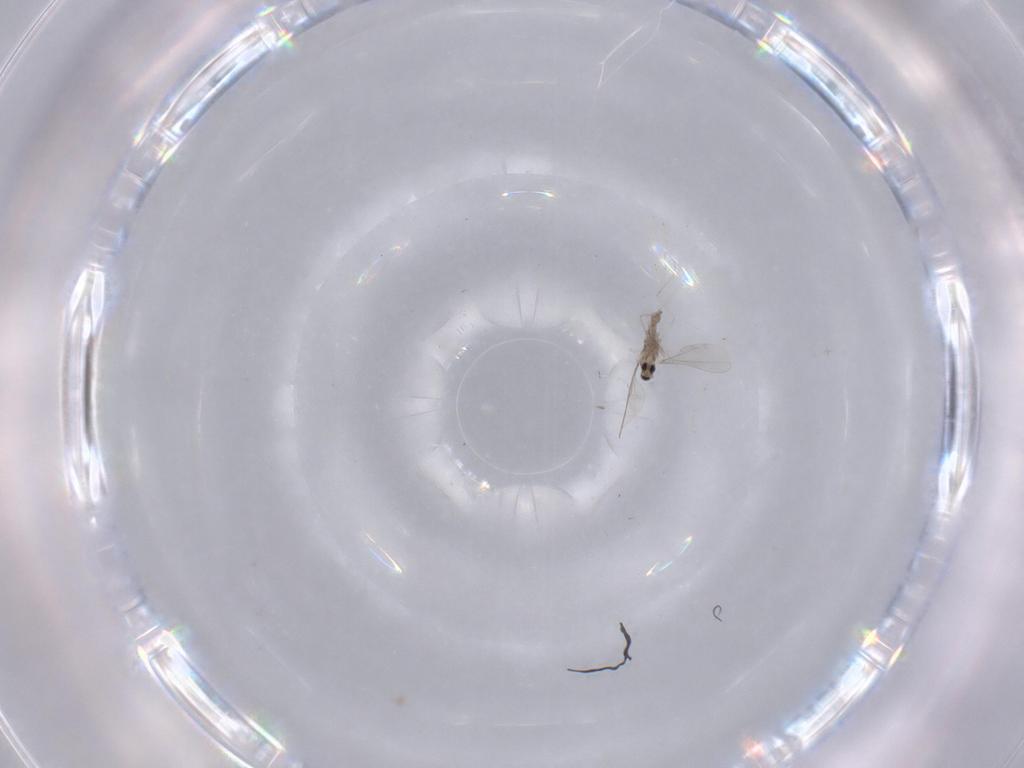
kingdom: Animalia
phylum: Arthropoda
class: Insecta
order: Diptera
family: Cecidomyiidae
